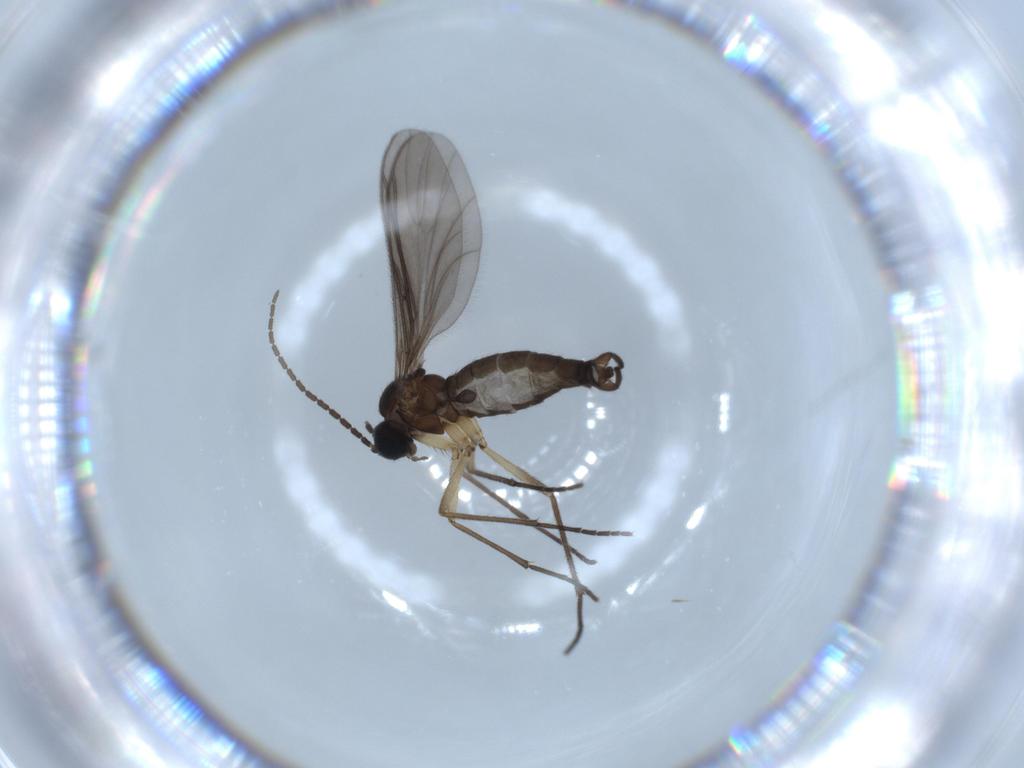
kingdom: Animalia
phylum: Arthropoda
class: Insecta
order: Diptera
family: Sciaridae
